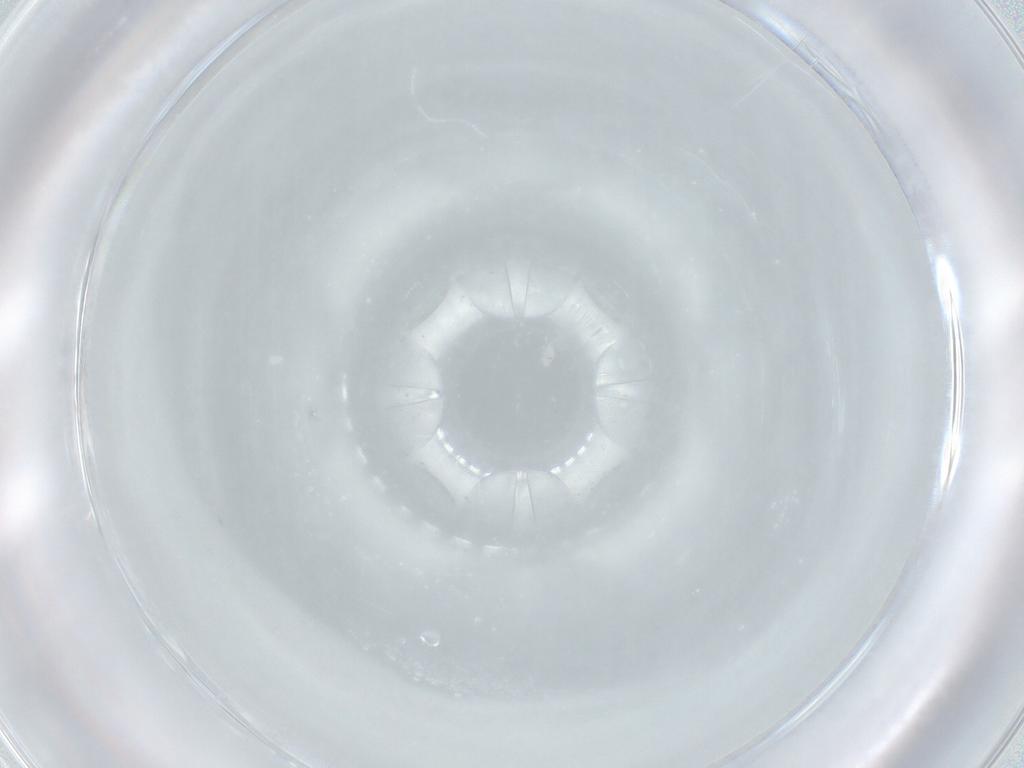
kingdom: Animalia
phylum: Arthropoda
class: Arachnida
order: Trombidiformes
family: Tydeidae
